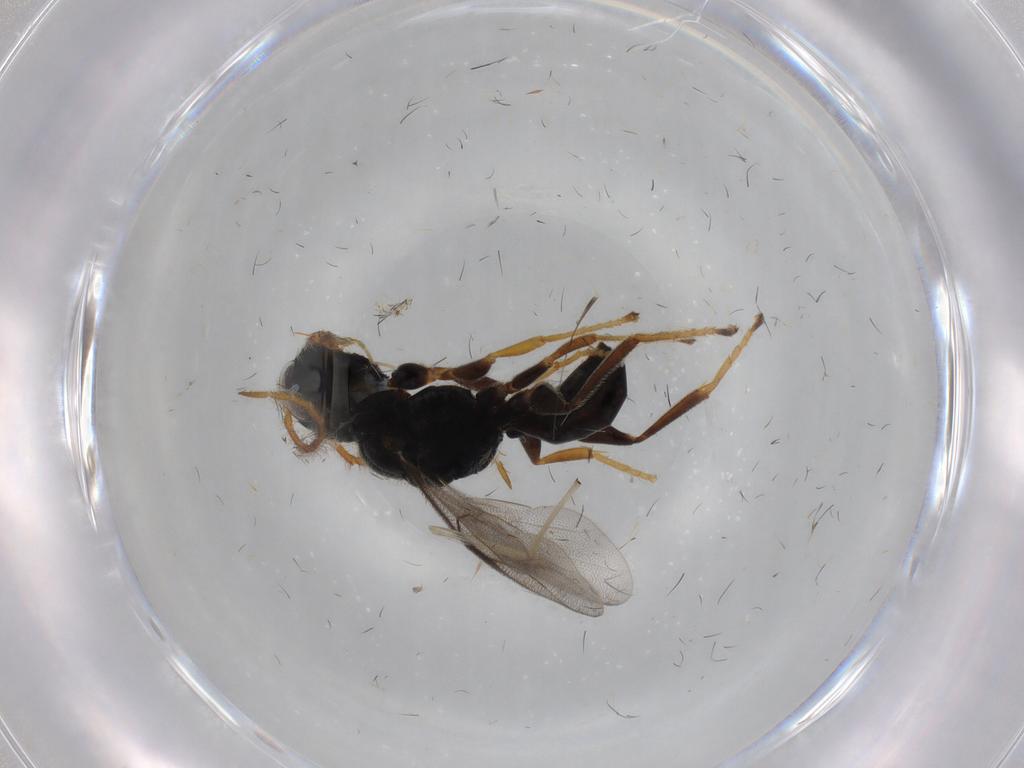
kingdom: Animalia
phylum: Arthropoda
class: Insecta
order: Hymenoptera
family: Dryinidae
